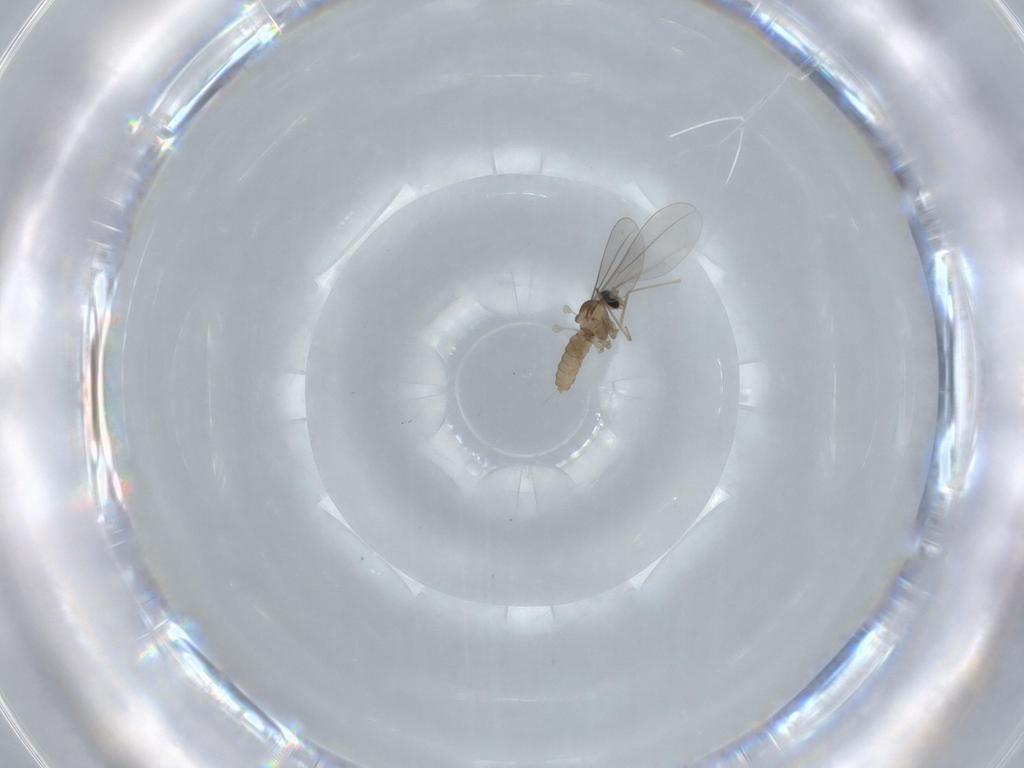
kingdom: Animalia
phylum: Arthropoda
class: Insecta
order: Diptera
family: Cecidomyiidae
